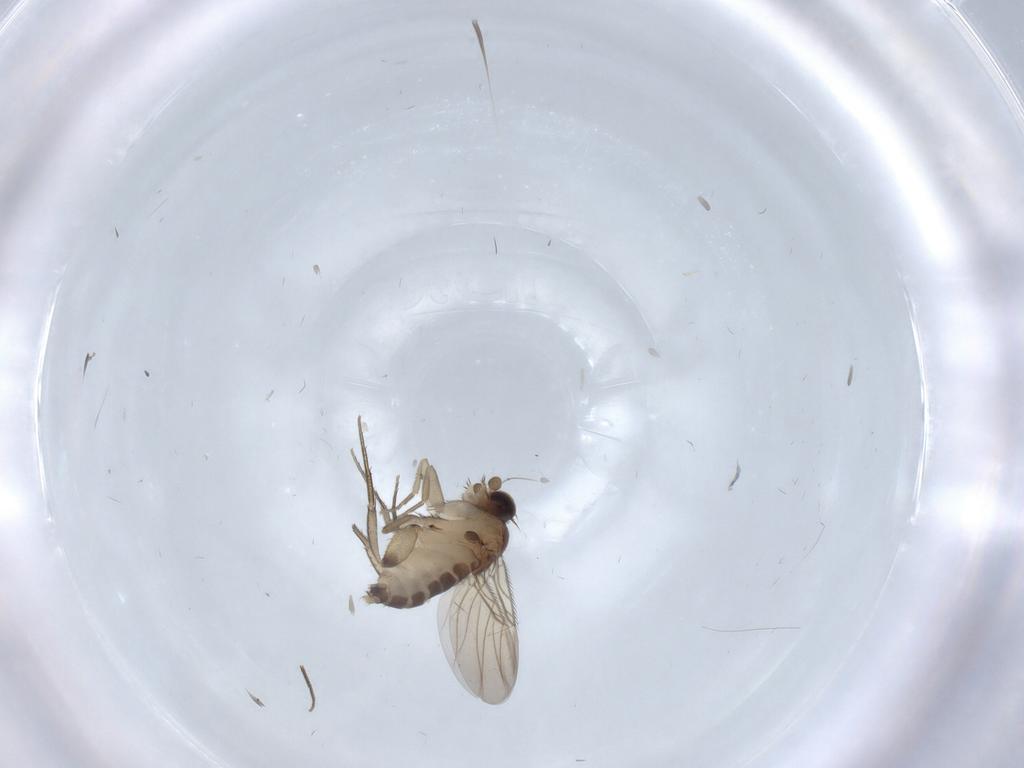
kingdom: Animalia
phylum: Arthropoda
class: Insecta
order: Diptera
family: Phoridae
